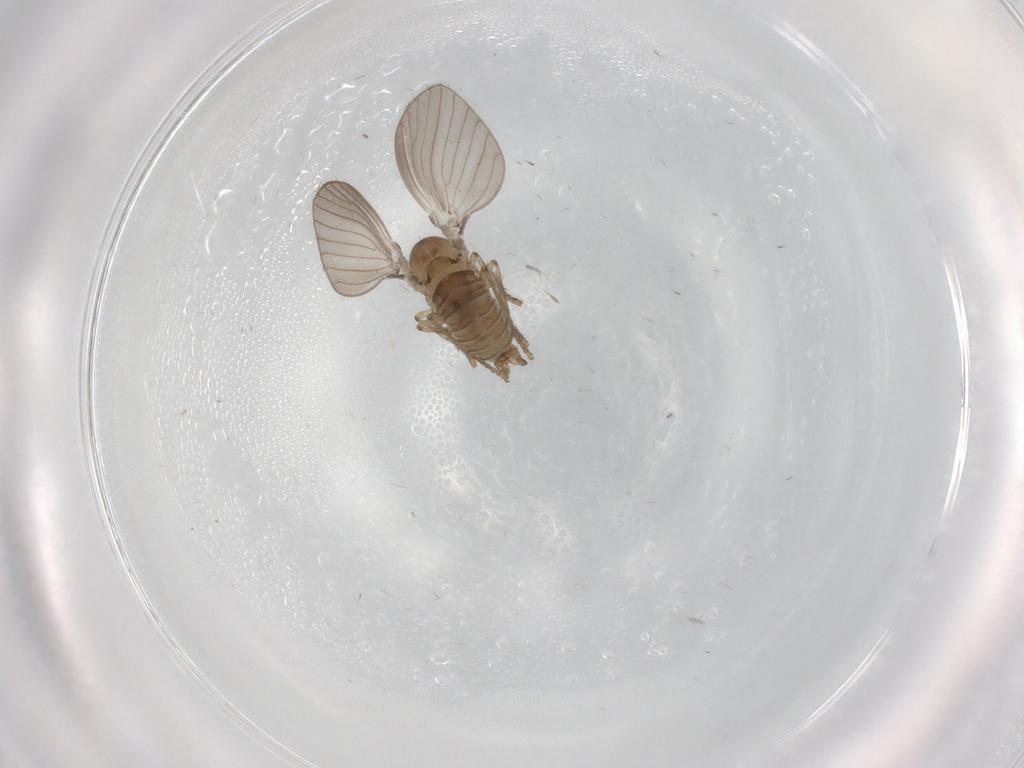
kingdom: Animalia
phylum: Arthropoda
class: Insecta
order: Diptera
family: Psychodidae
